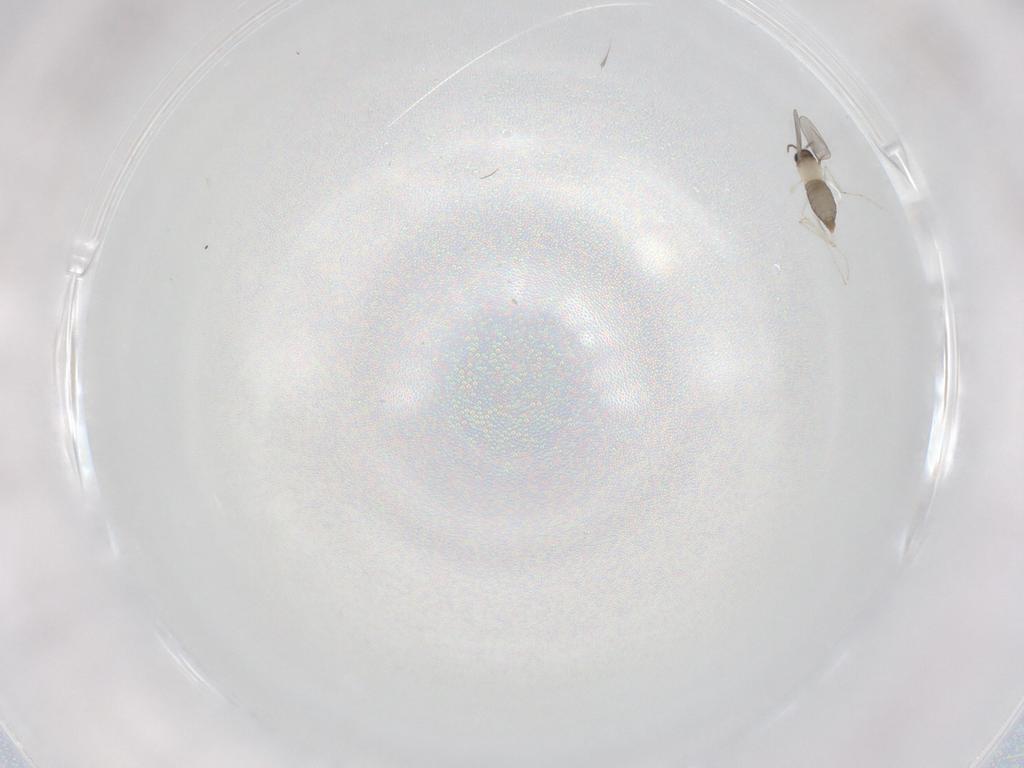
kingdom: Animalia
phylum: Arthropoda
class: Insecta
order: Diptera
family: Cecidomyiidae
